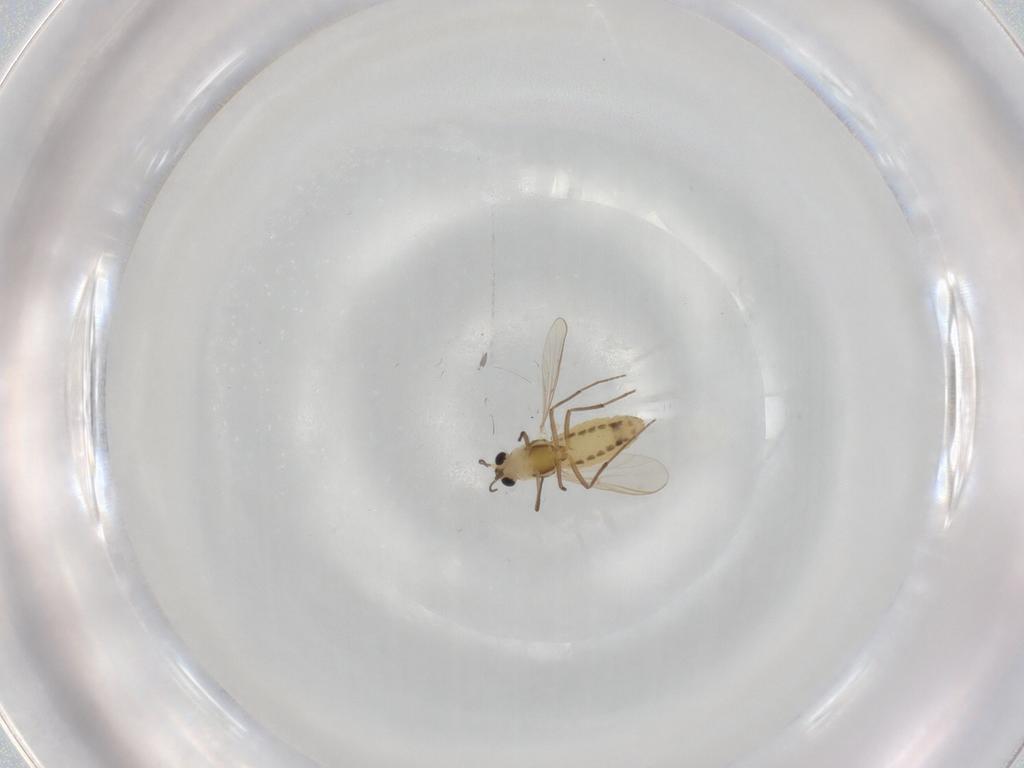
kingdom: Animalia
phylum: Arthropoda
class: Insecta
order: Diptera
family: Chironomidae
